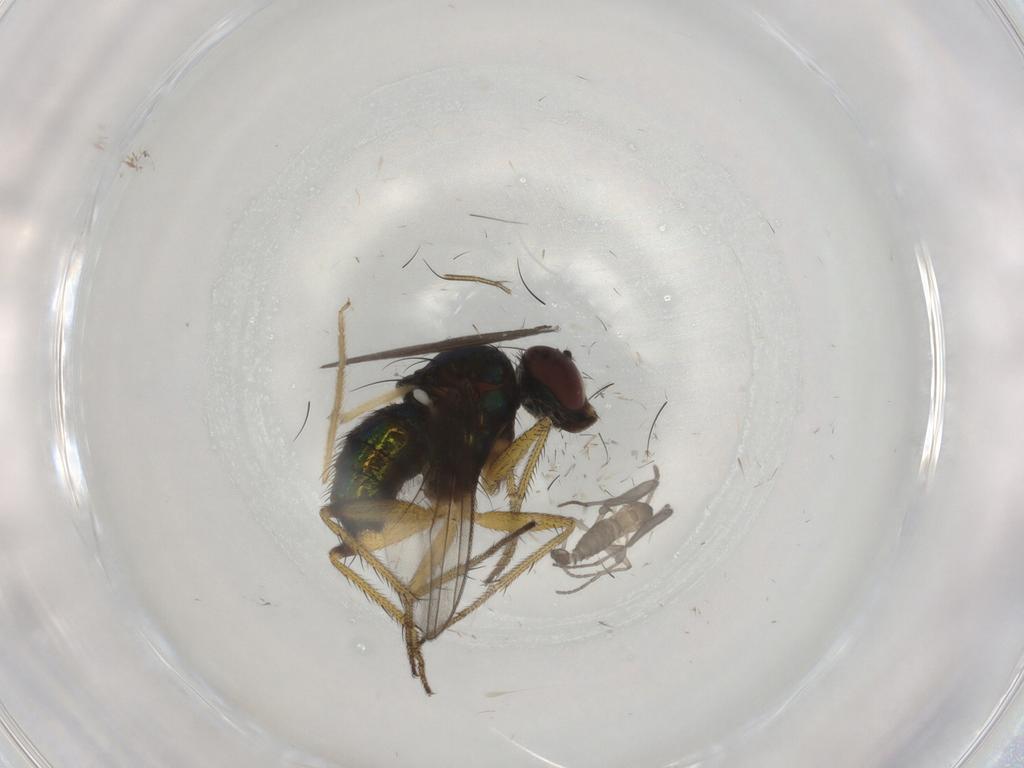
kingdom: Animalia
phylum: Arthropoda
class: Insecta
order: Diptera
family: Dolichopodidae
